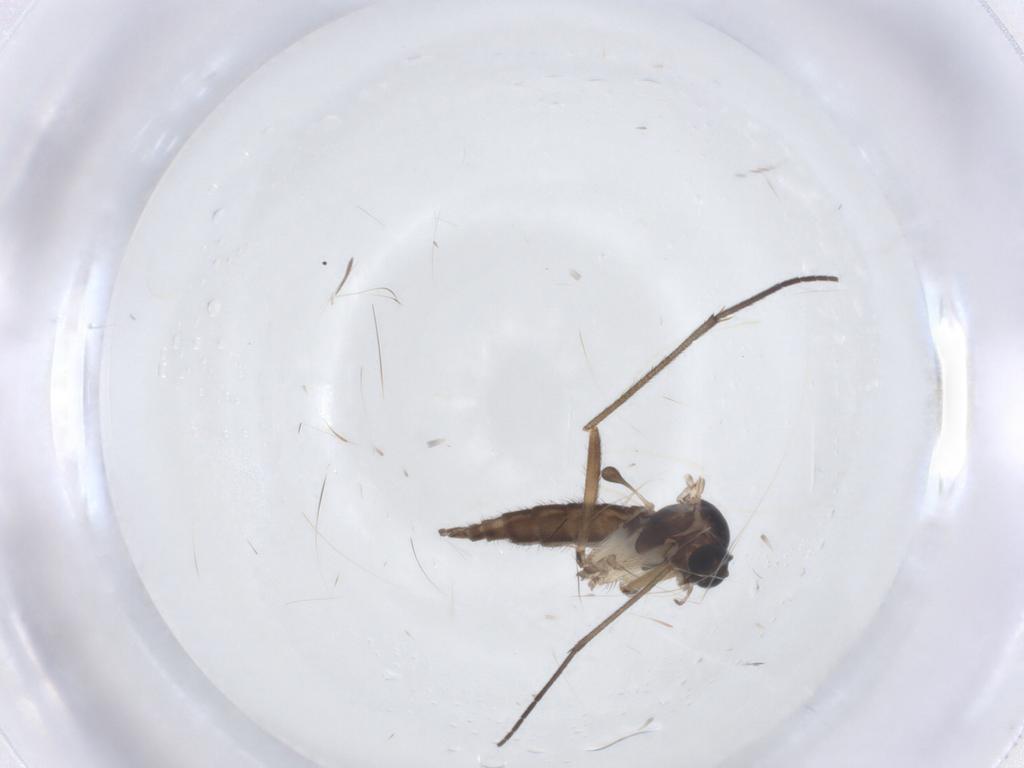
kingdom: Animalia
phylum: Arthropoda
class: Insecta
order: Diptera
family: Sciaridae
